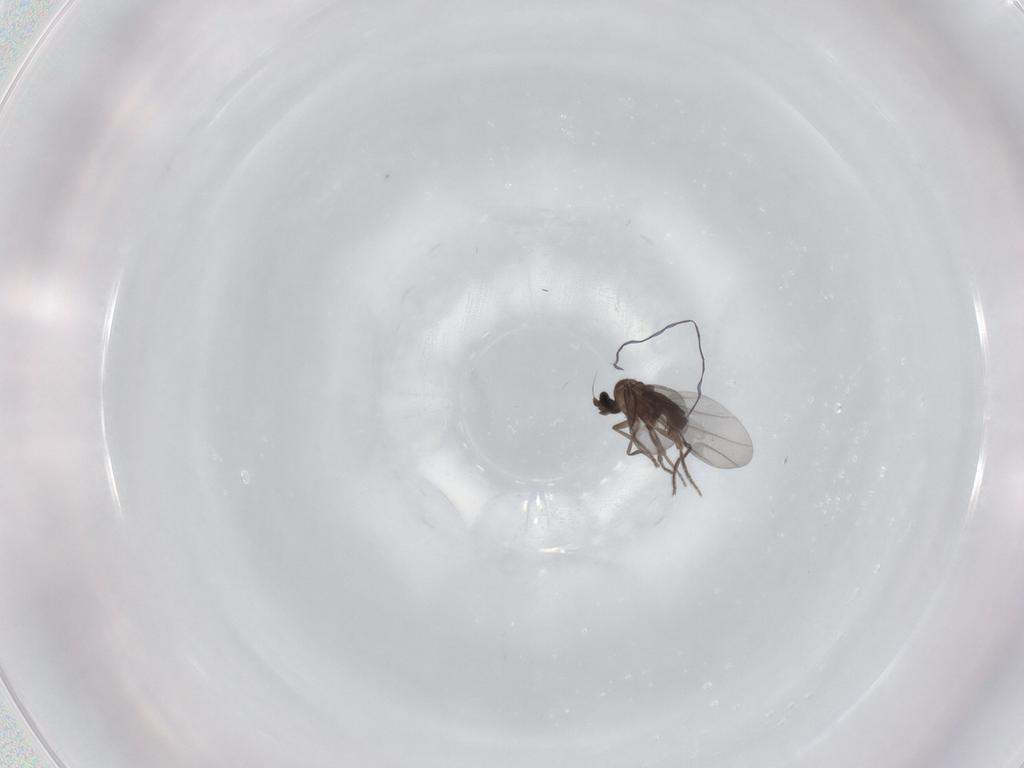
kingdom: Animalia
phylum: Arthropoda
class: Insecta
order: Diptera
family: Phoridae
